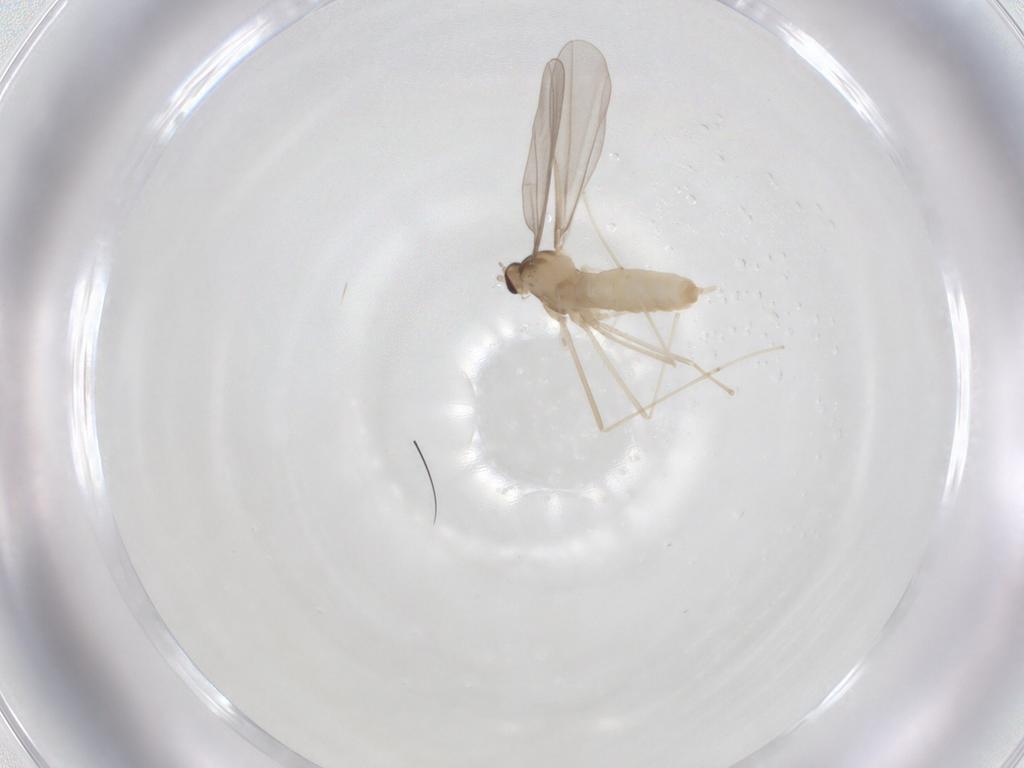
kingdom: Animalia
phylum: Arthropoda
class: Insecta
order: Diptera
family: Cecidomyiidae
